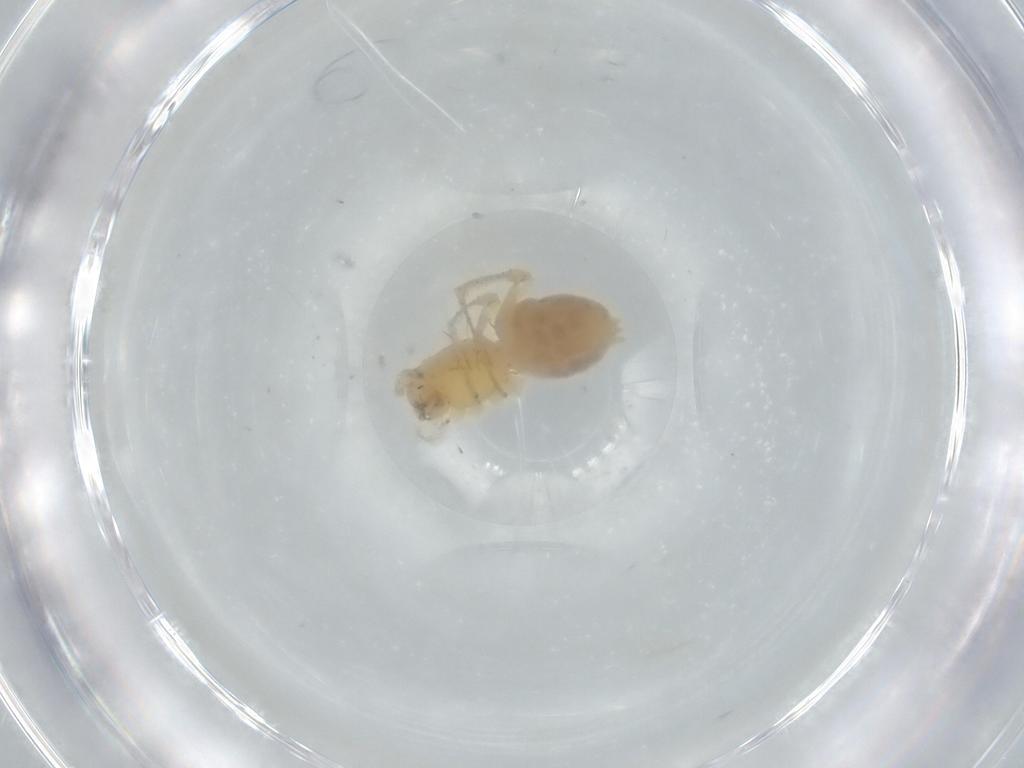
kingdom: Animalia
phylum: Arthropoda
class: Arachnida
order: Araneae
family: Anyphaenidae
